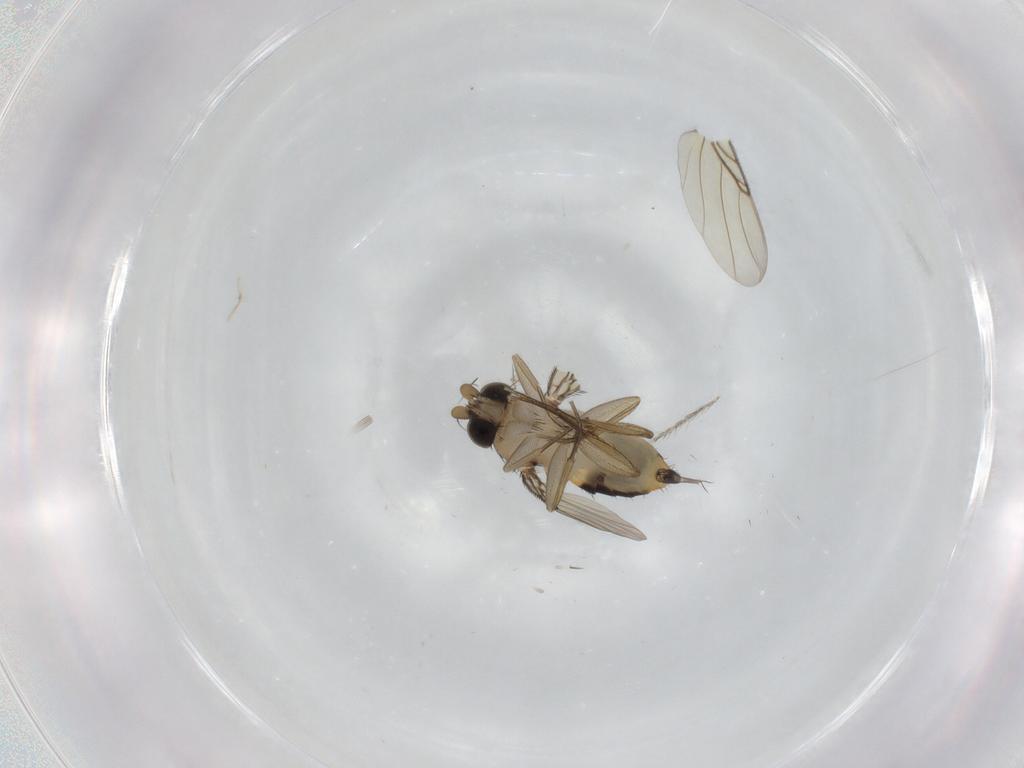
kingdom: Animalia
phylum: Arthropoda
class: Insecta
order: Diptera
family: Phoridae
